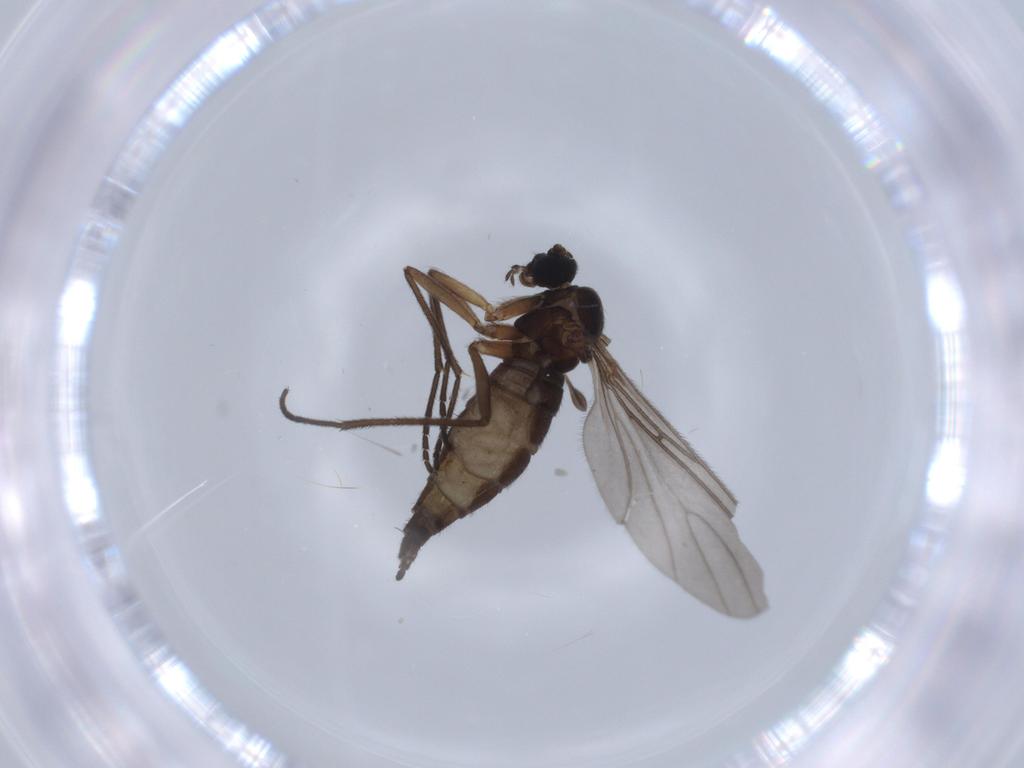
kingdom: Animalia
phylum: Arthropoda
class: Insecta
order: Diptera
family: Sciaridae
